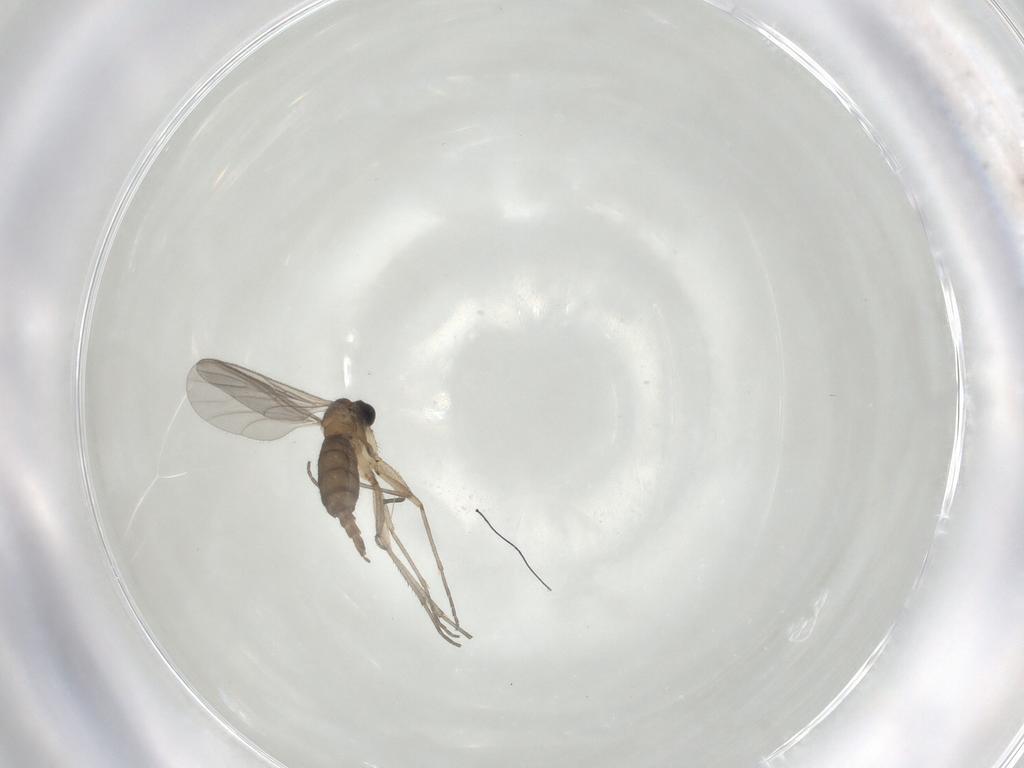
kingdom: Animalia
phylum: Arthropoda
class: Insecta
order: Diptera
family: Sciaridae
